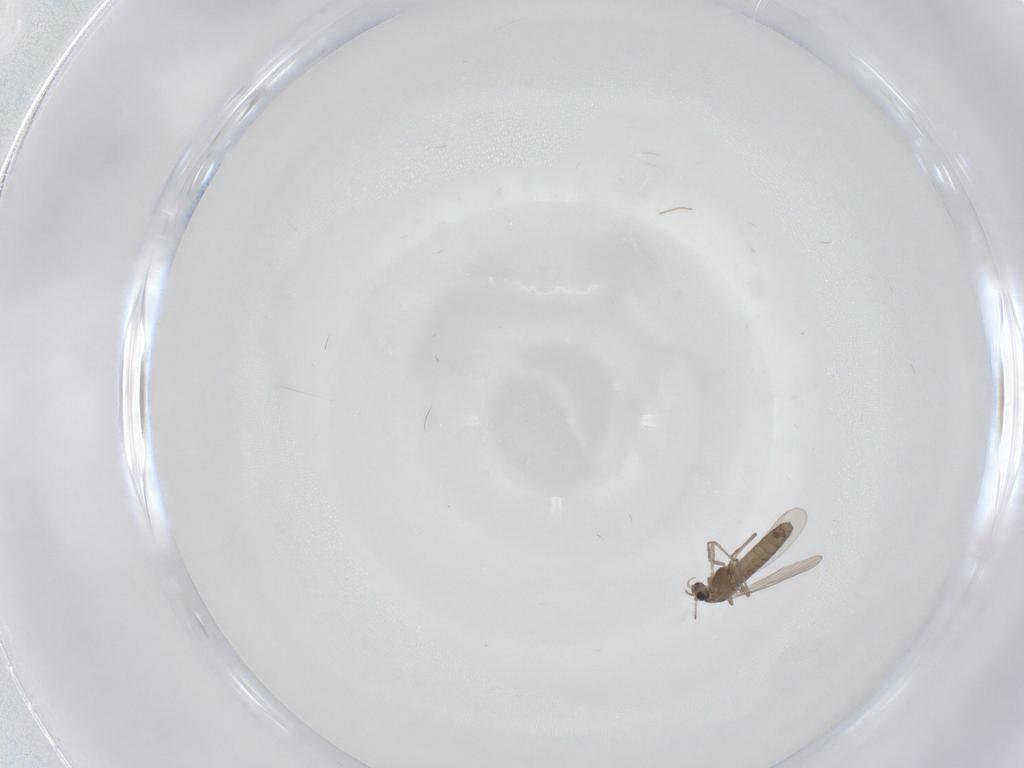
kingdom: Animalia
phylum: Arthropoda
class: Insecta
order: Diptera
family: Chironomidae
